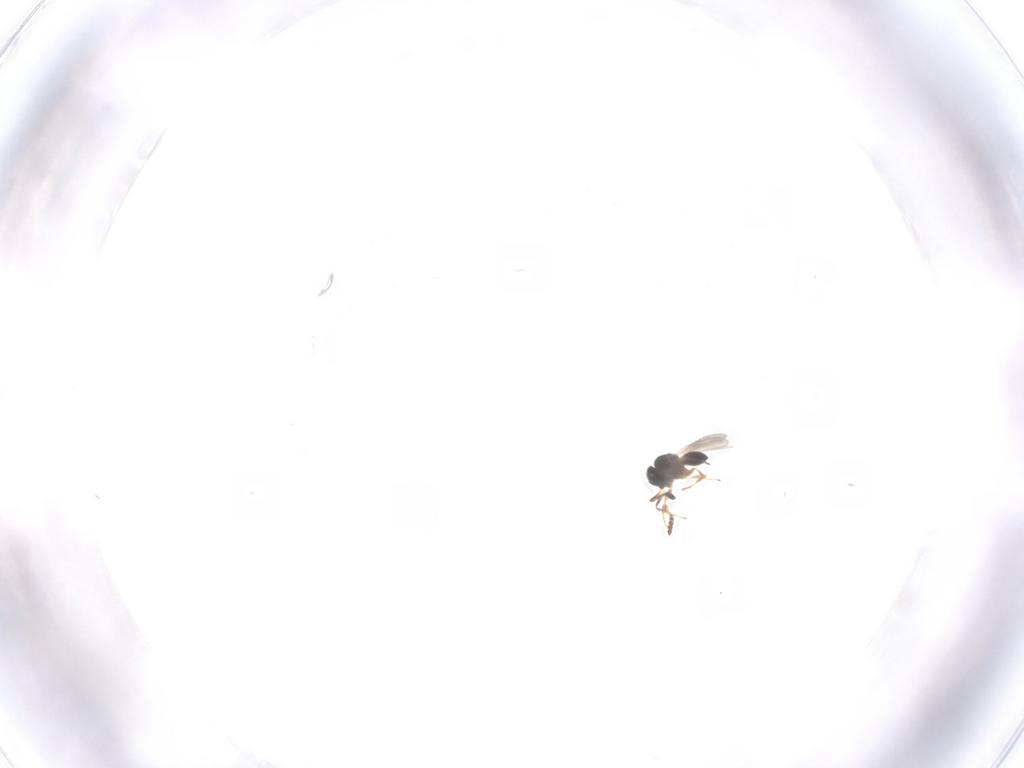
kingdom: Animalia
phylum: Arthropoda
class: Insecta
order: Hymenoptera
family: Scelionidae
